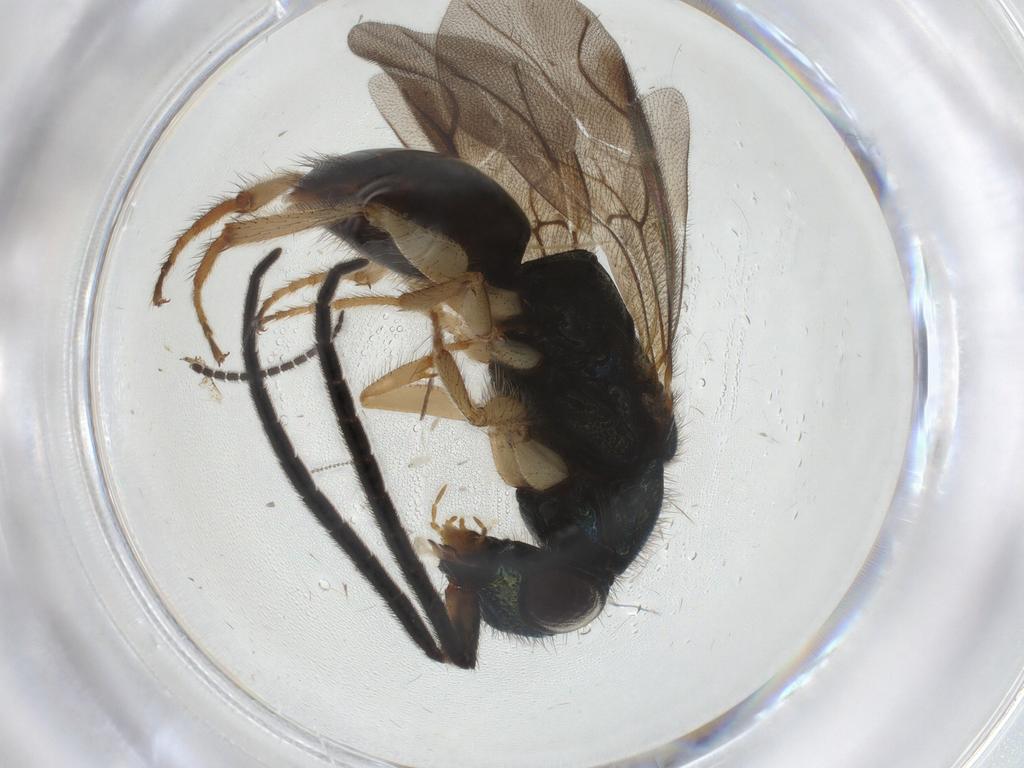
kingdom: Animalia
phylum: Arthropoda
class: Insecta
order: Hymenoptera
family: Chrysididae
